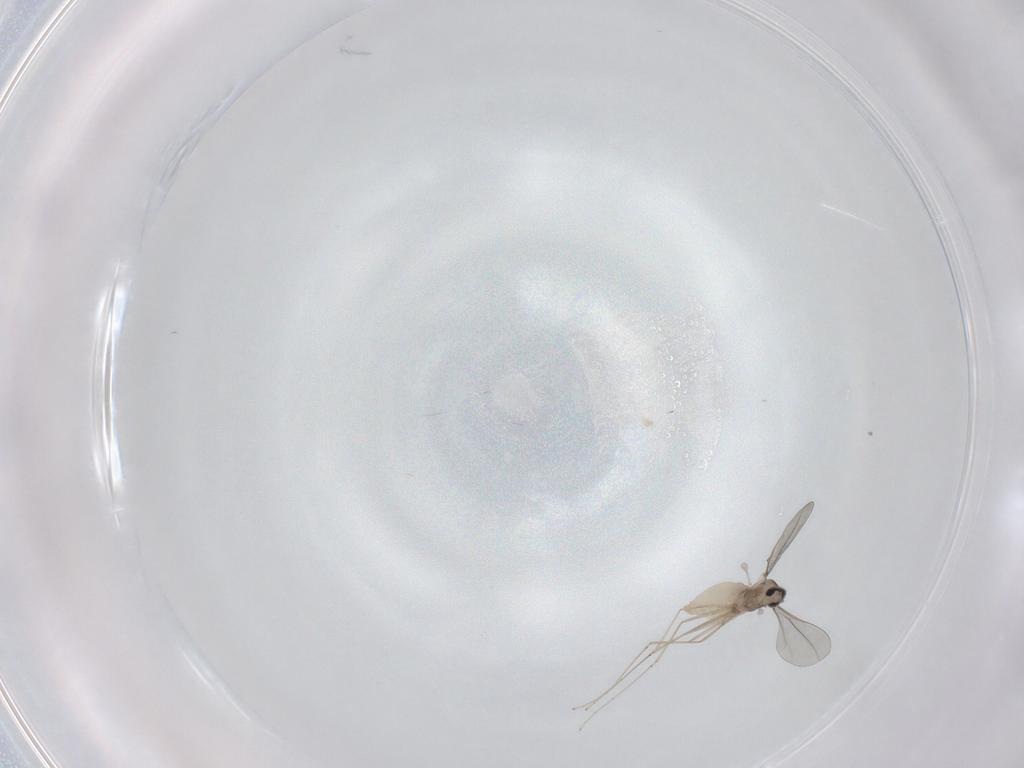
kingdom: Animalia
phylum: Arthropoda
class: Insecta
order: Diptera
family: Cecidomyiidae
